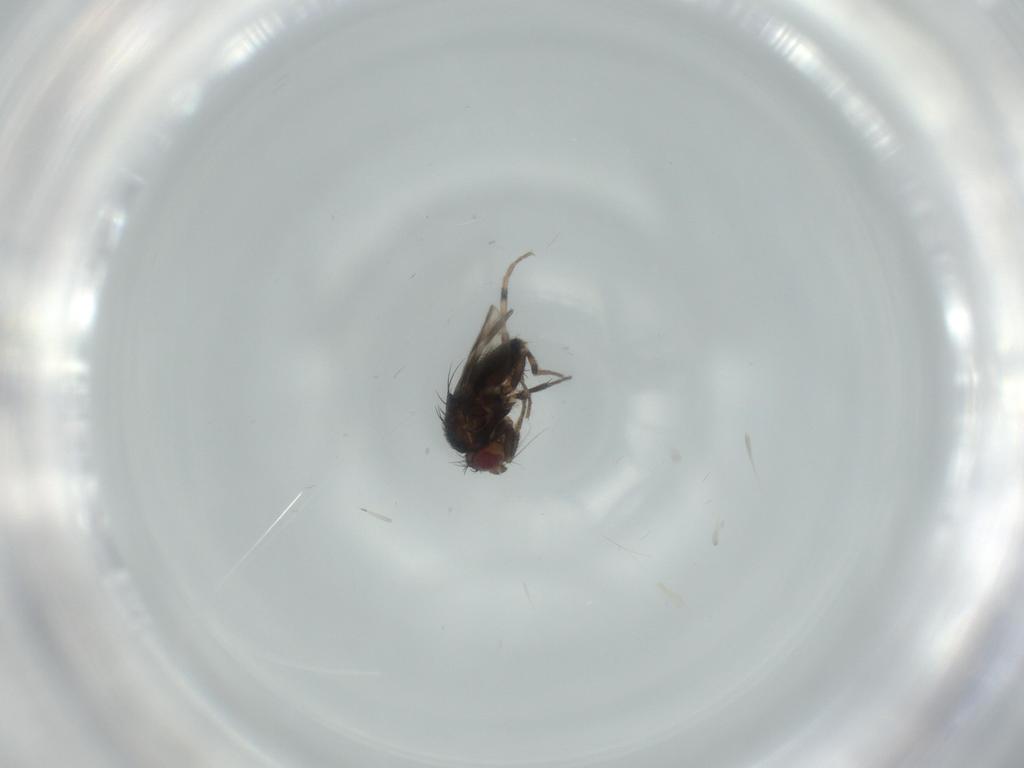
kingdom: Animalia
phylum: Arthropoda
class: Insecta
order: Diptera
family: Sphaeroceridae
